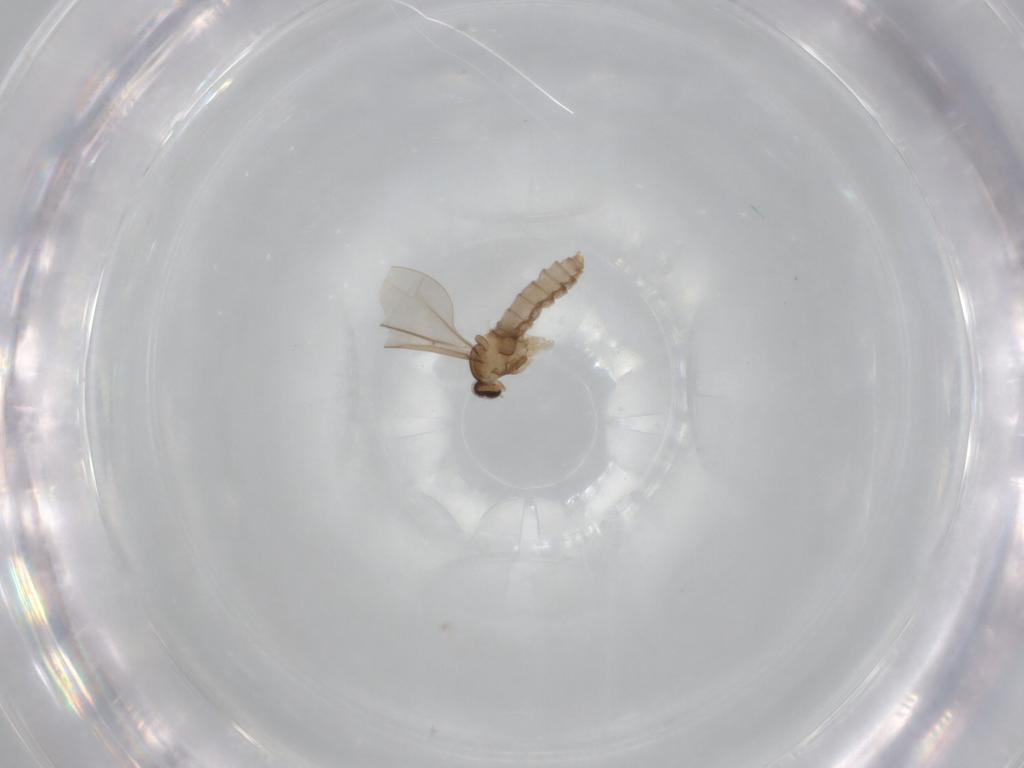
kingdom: Animalia
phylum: Arthropoda
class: Insecta
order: Diptera
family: Cecidomyiidae
